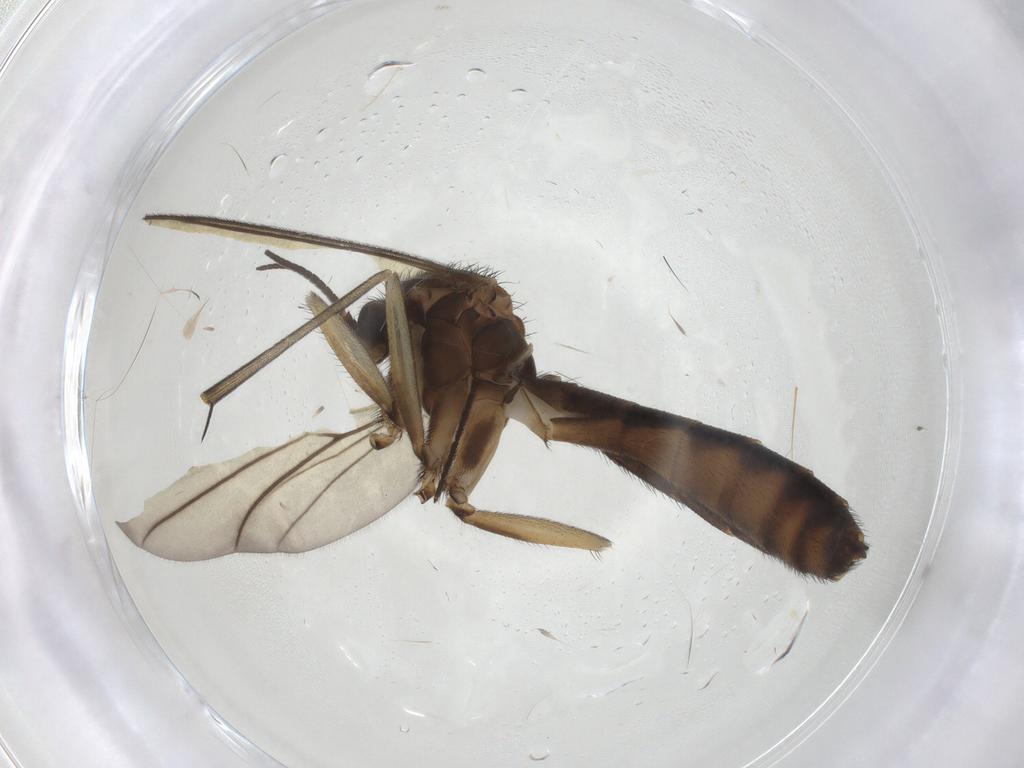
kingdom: Animalia
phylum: Arthropoda
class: Insecta
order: Diptera
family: Keroplatidae
